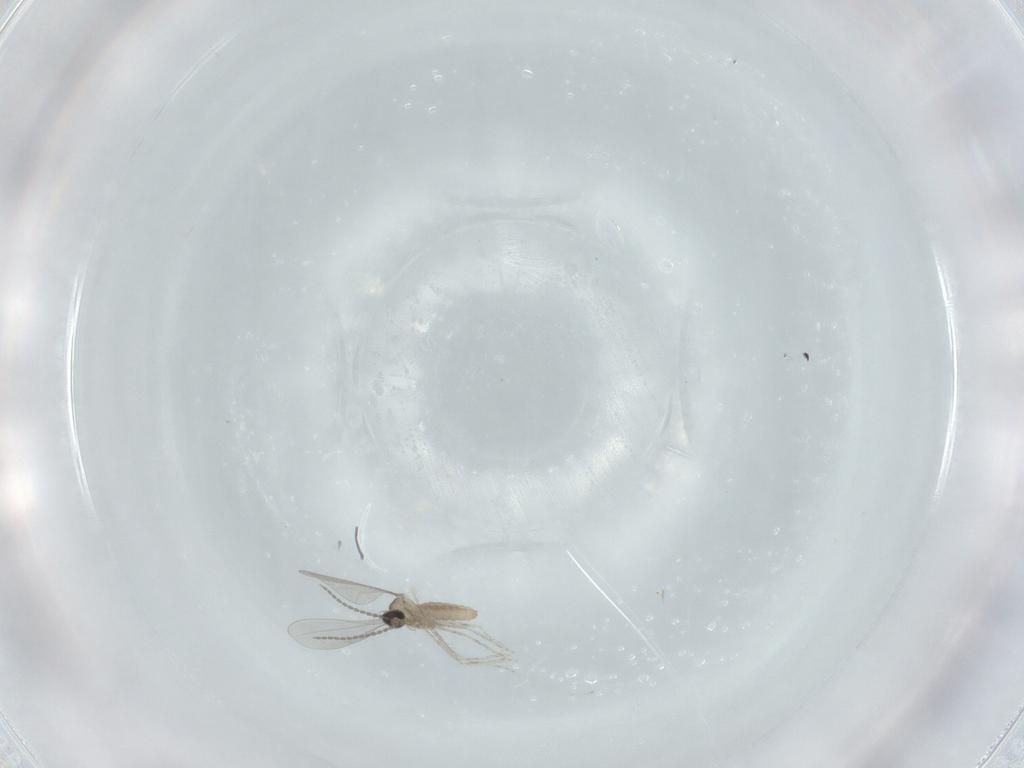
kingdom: Animalia
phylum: Arthropoda
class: Insecta
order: Diptera
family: Cecidomyiidae
